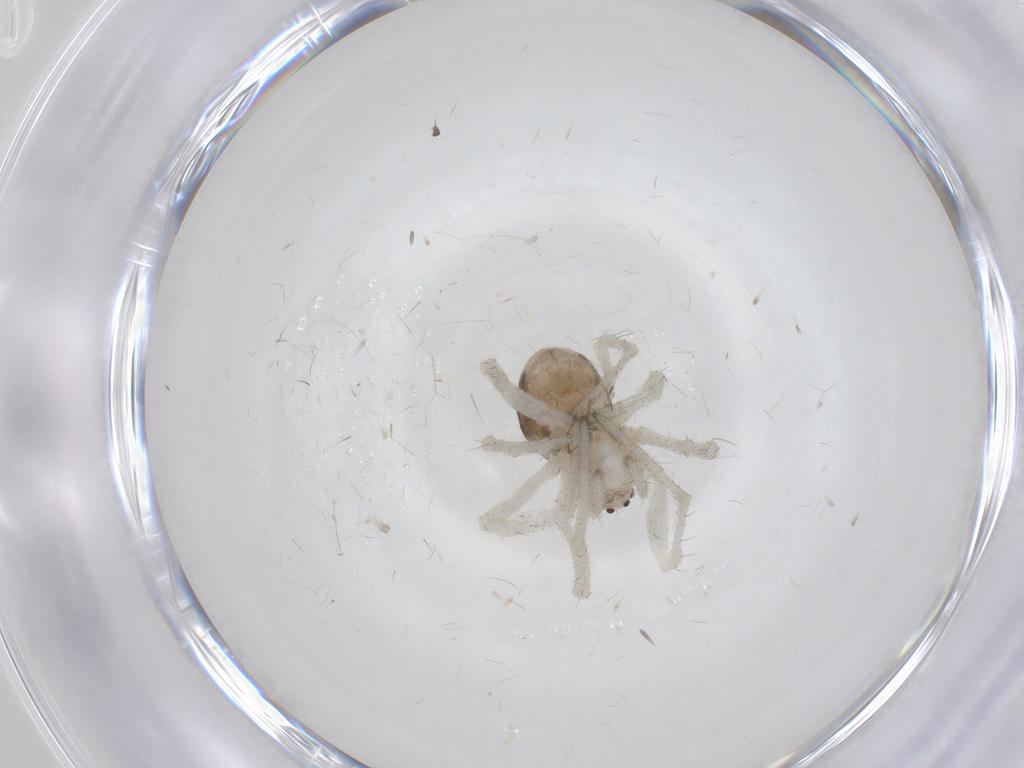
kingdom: Animalia
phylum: Arthropoda
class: Arachnida
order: Araneae
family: Theridiidae
